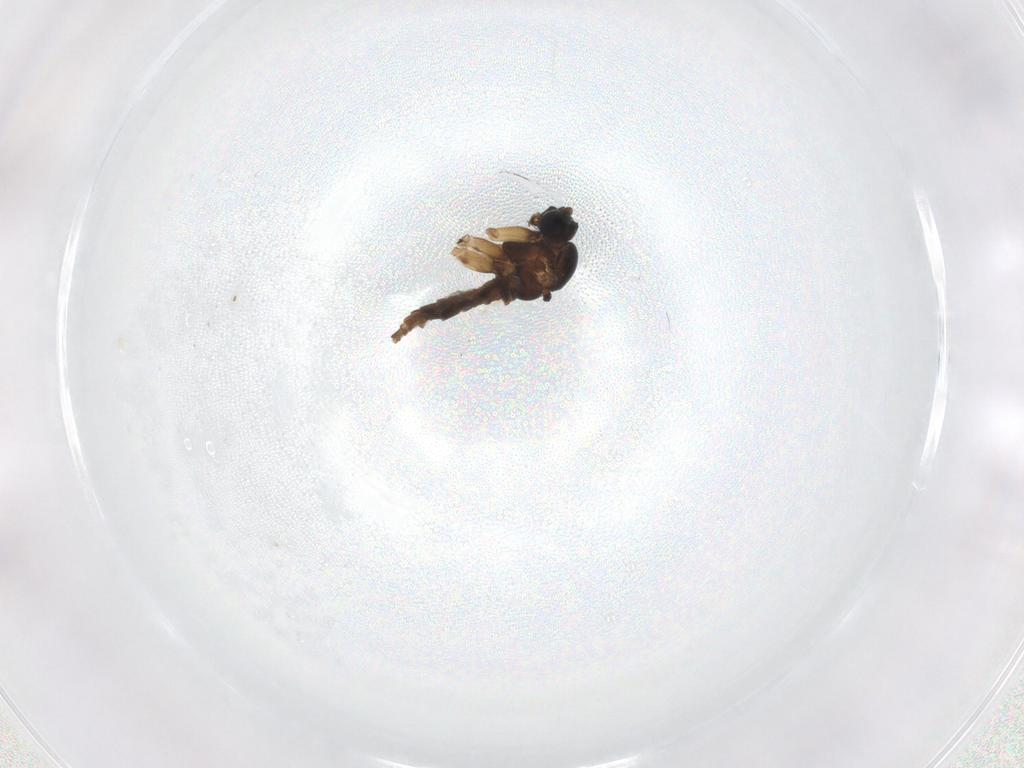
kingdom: Animalia
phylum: Arthropoda
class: Insecta
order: Diptera
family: Sciaridae
